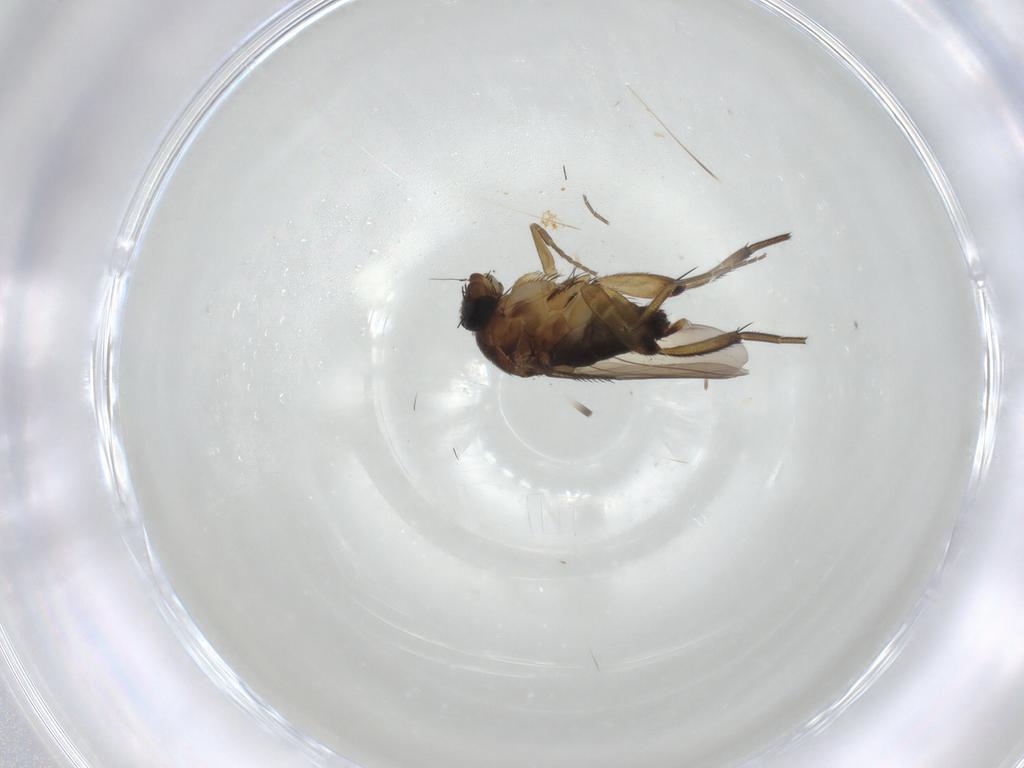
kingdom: Animalia
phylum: Arthropoda
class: Insecta
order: Diptera
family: Phoridae
